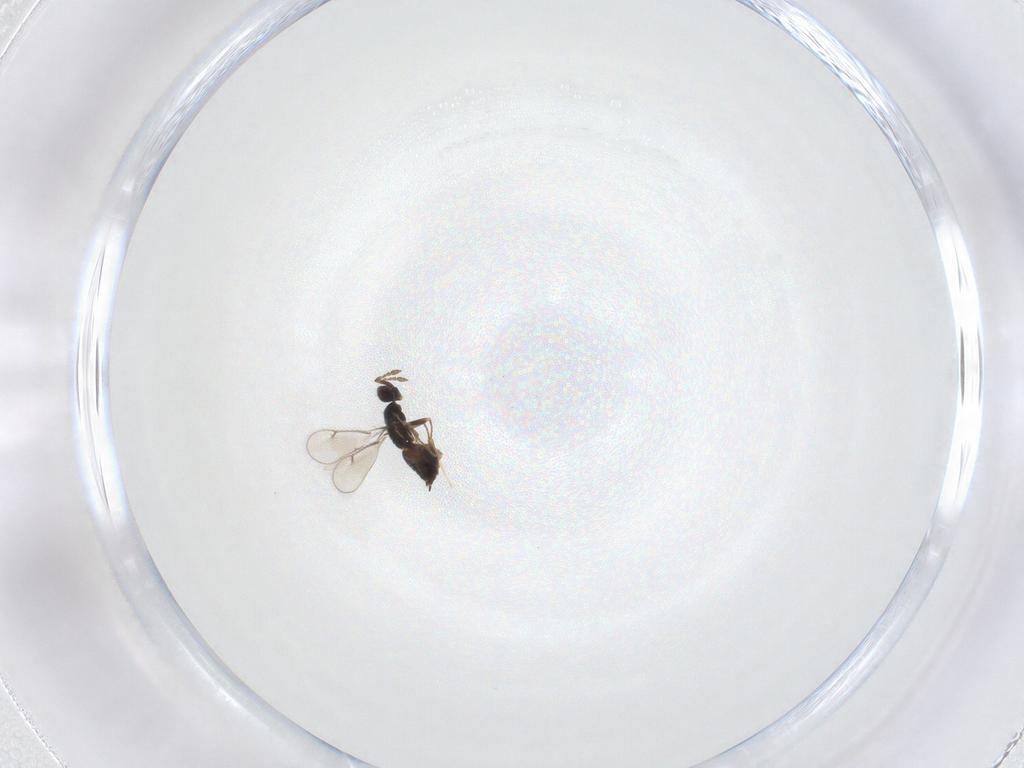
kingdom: Animalia
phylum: Arthropoda
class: Insecta
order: Hymenoptera
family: Eulophidae
